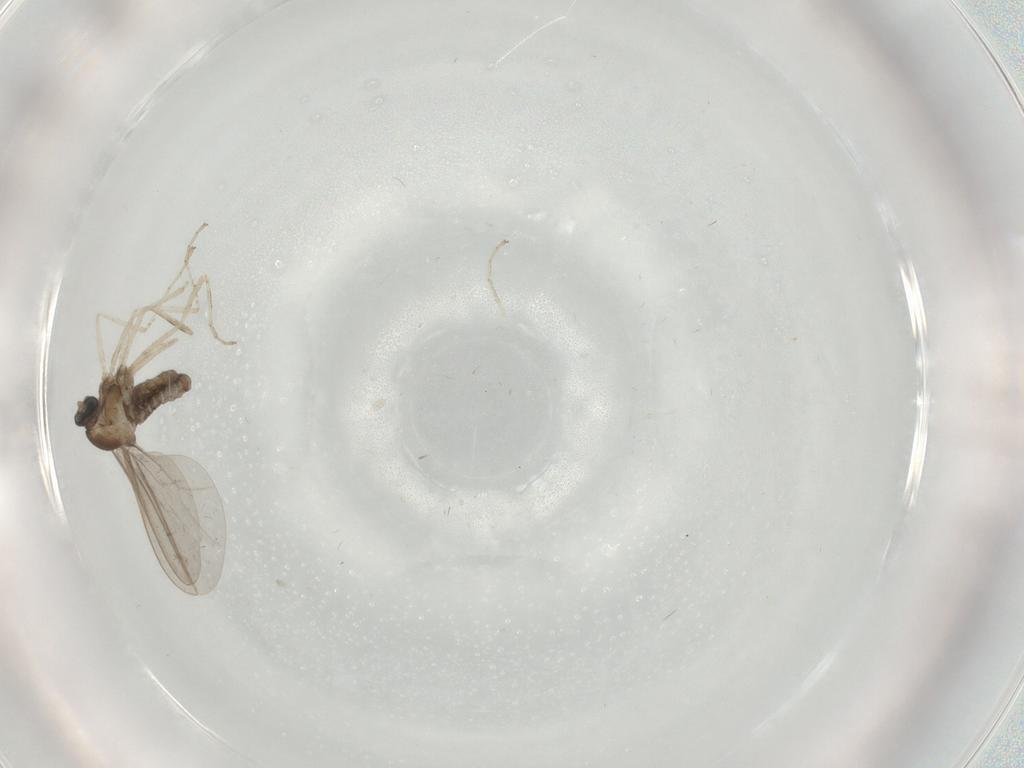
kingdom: Animalia
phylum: Arthropoda
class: Insecta
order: Diptera
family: Cecidomyiidae
